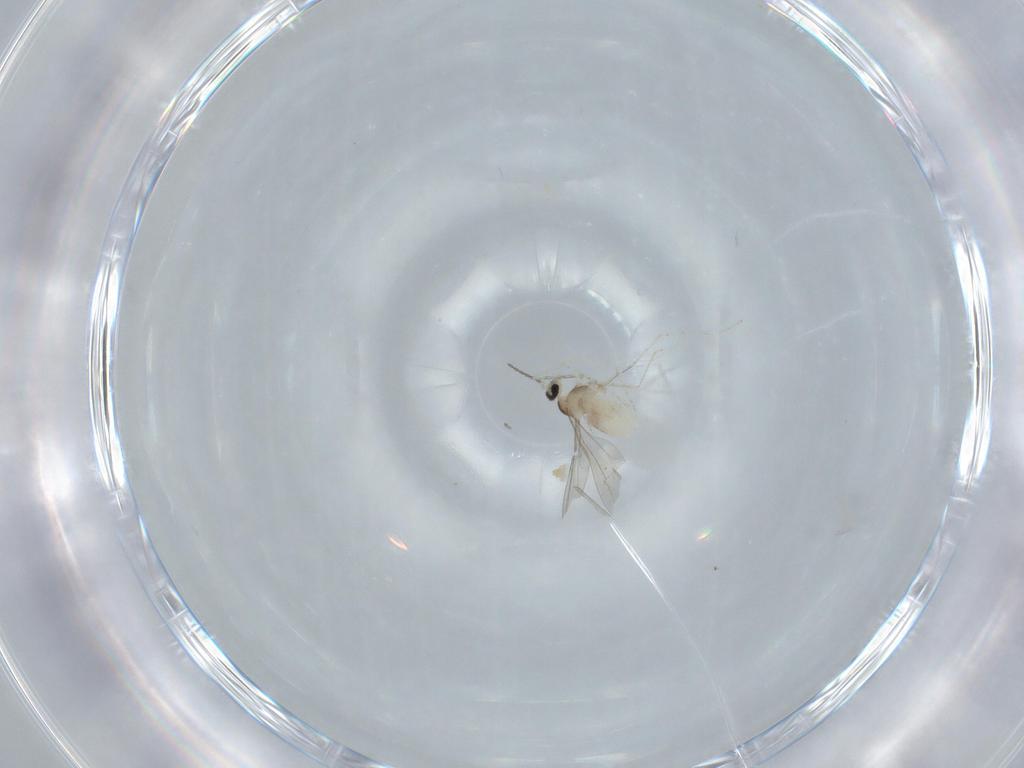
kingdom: Animalia
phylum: Arthropoda
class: Insecta
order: Diptera
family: Cecidomyiidae
